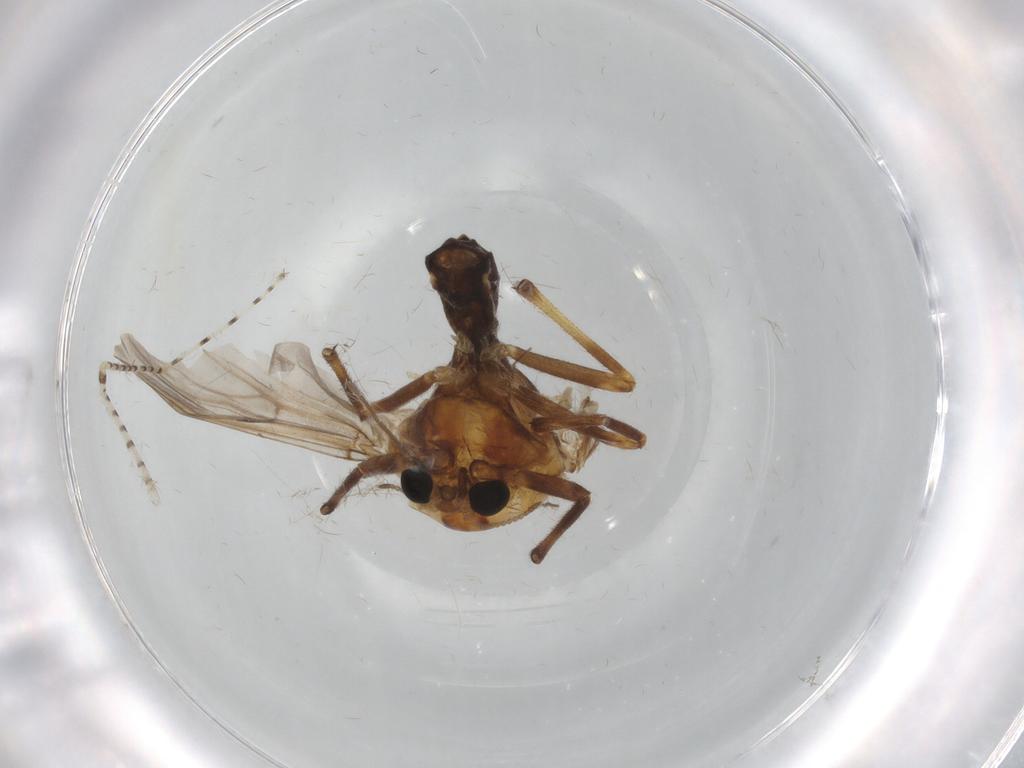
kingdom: Animalia
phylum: Arthropoda
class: Insecta
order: Diptera
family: Chironomidae
